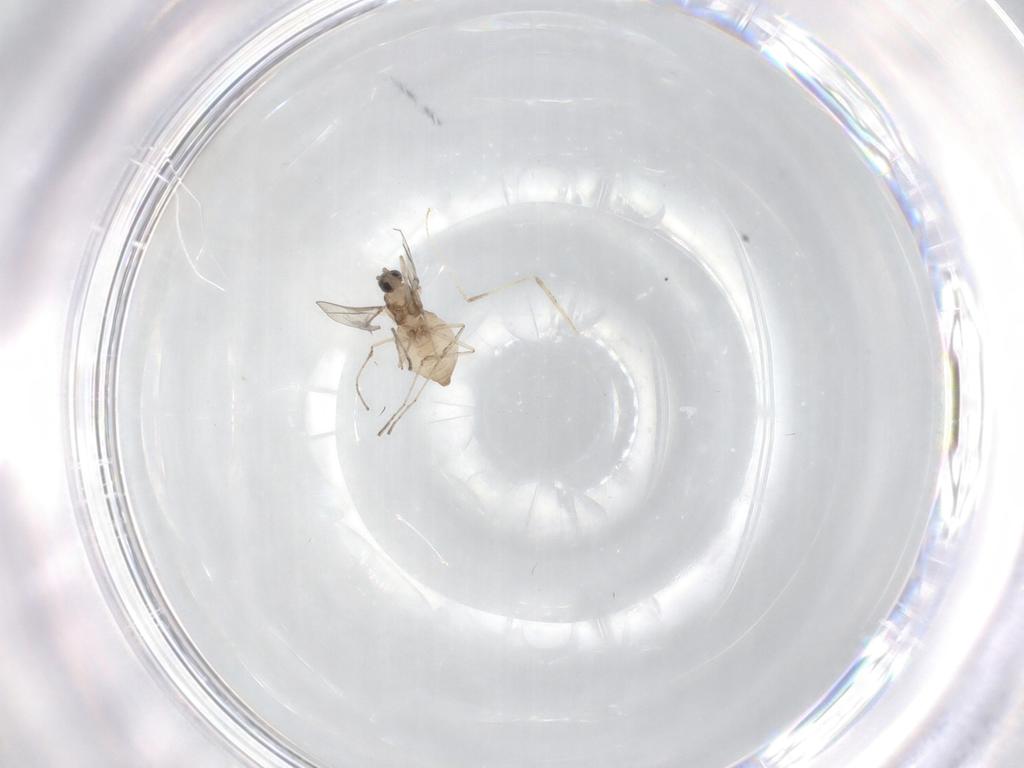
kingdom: Animalia
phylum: Arthropoda
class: Insecta
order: Diptera
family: Cecidomyiidae
